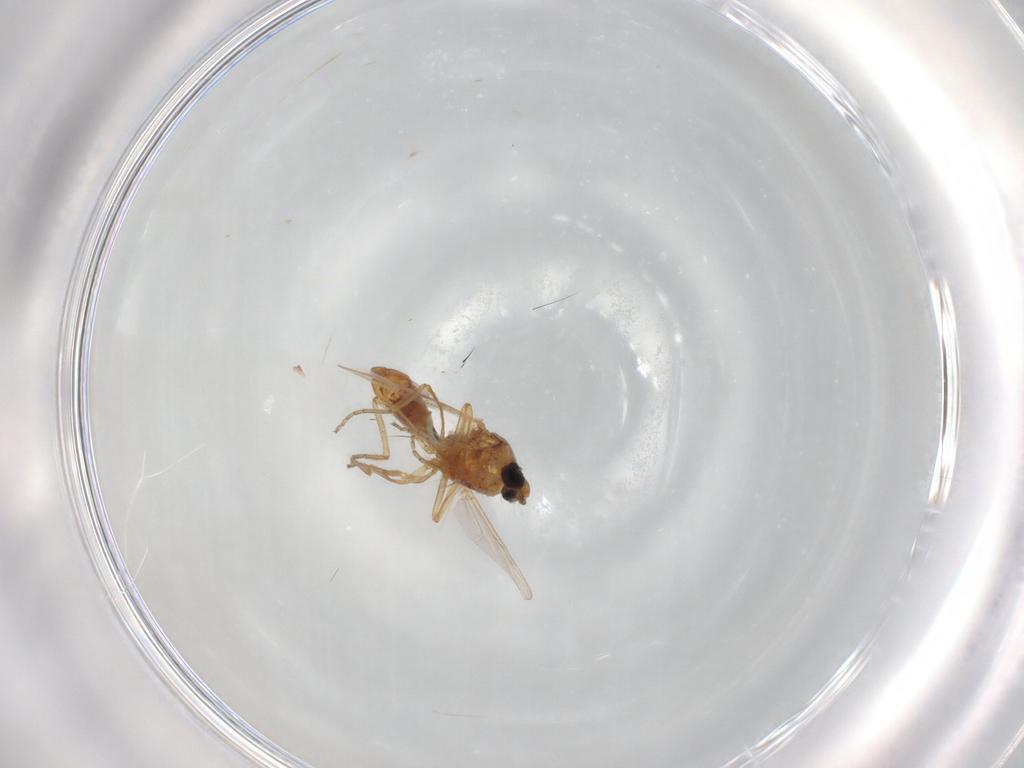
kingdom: Animalia
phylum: Arthropoda
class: Insecta
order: Diptera
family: Ceratopogonidae
